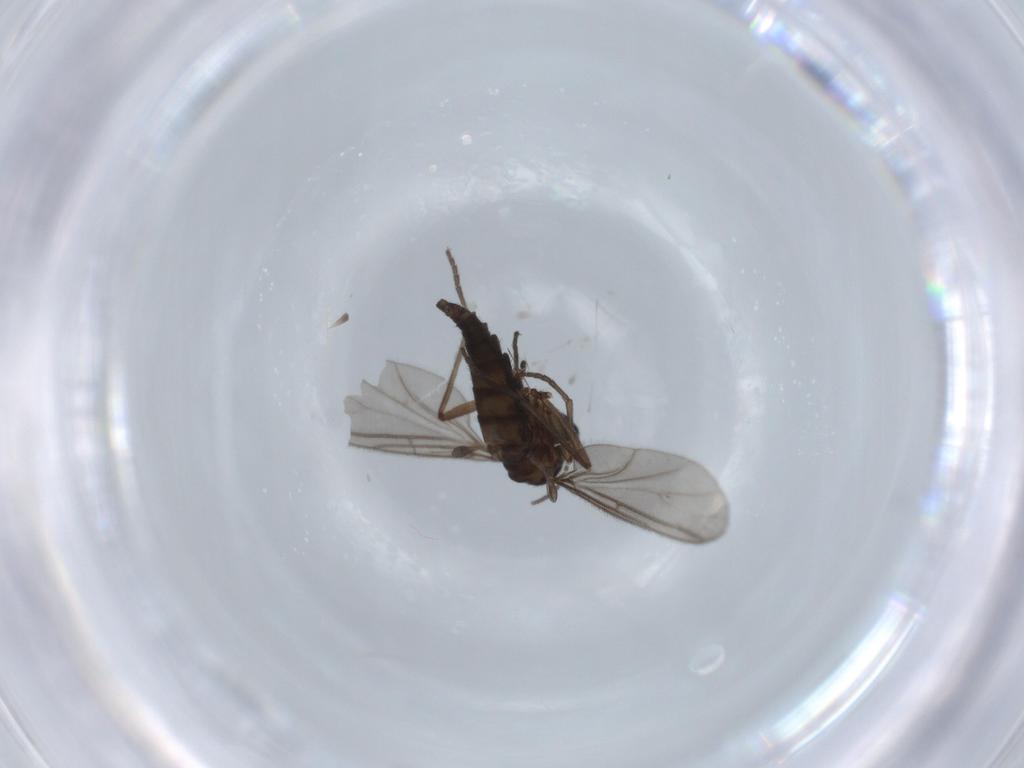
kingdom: Animalia
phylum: Arthropoda
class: Insecta
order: Diptera
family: Sciaridae
